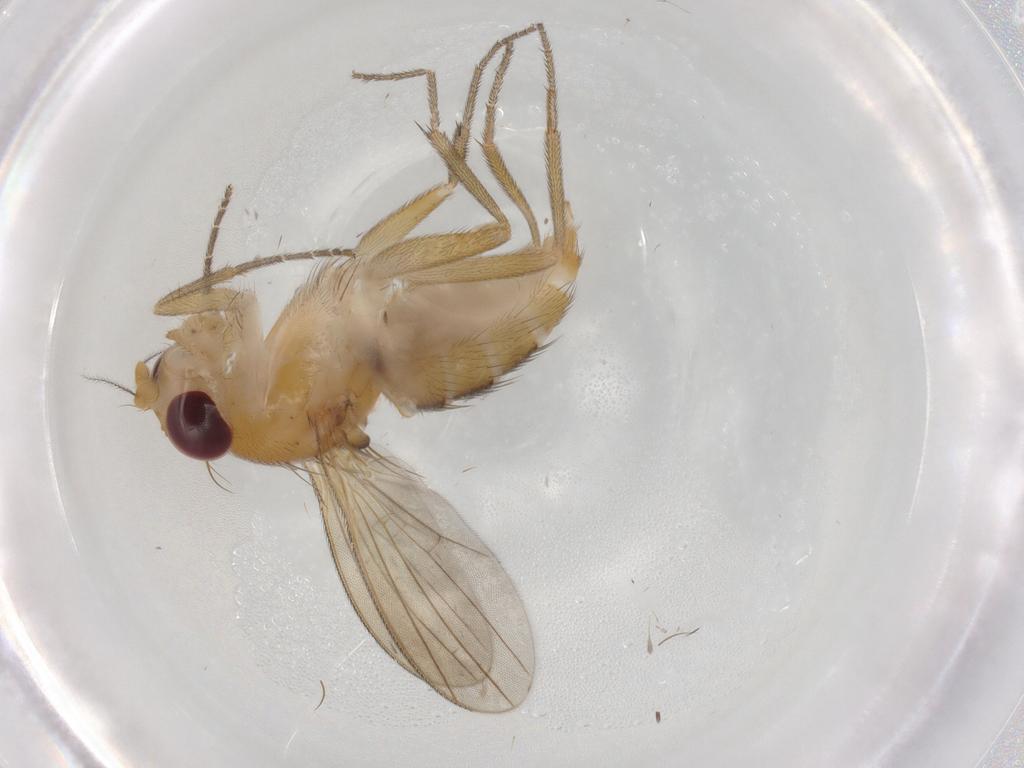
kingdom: Animalia
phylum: Arthropoda
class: Insecta
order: Diptera
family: Clusiidae
